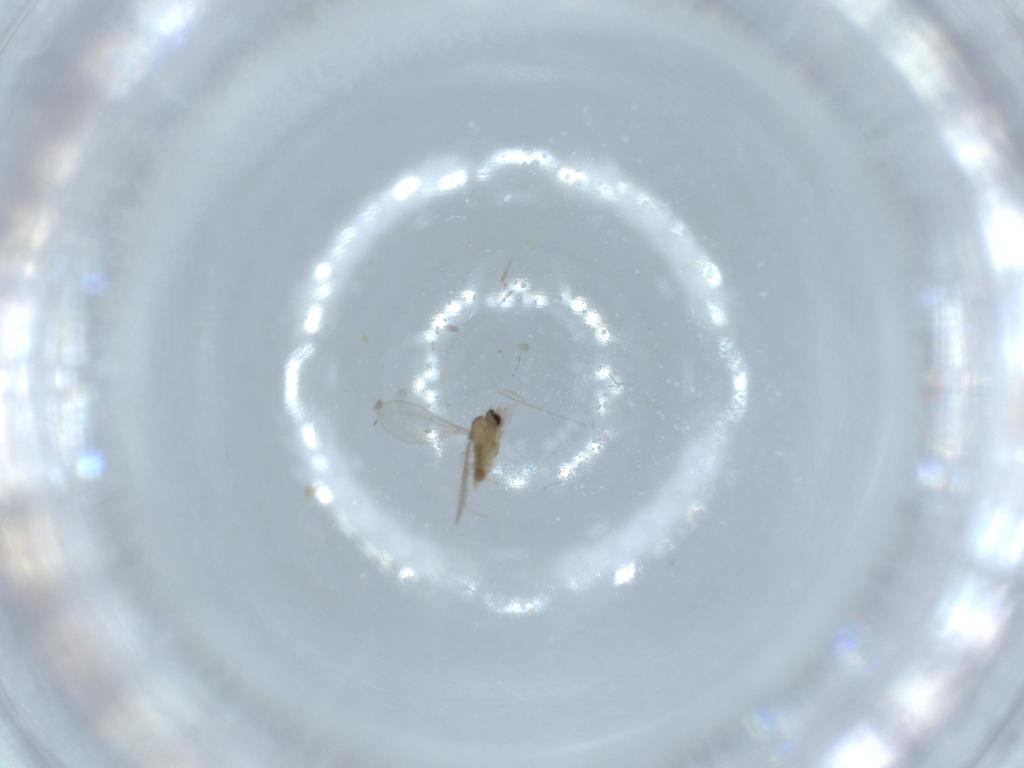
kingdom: Animalia
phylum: Arthropoda
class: Insecta
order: Diptera
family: Cecidomyiidae
